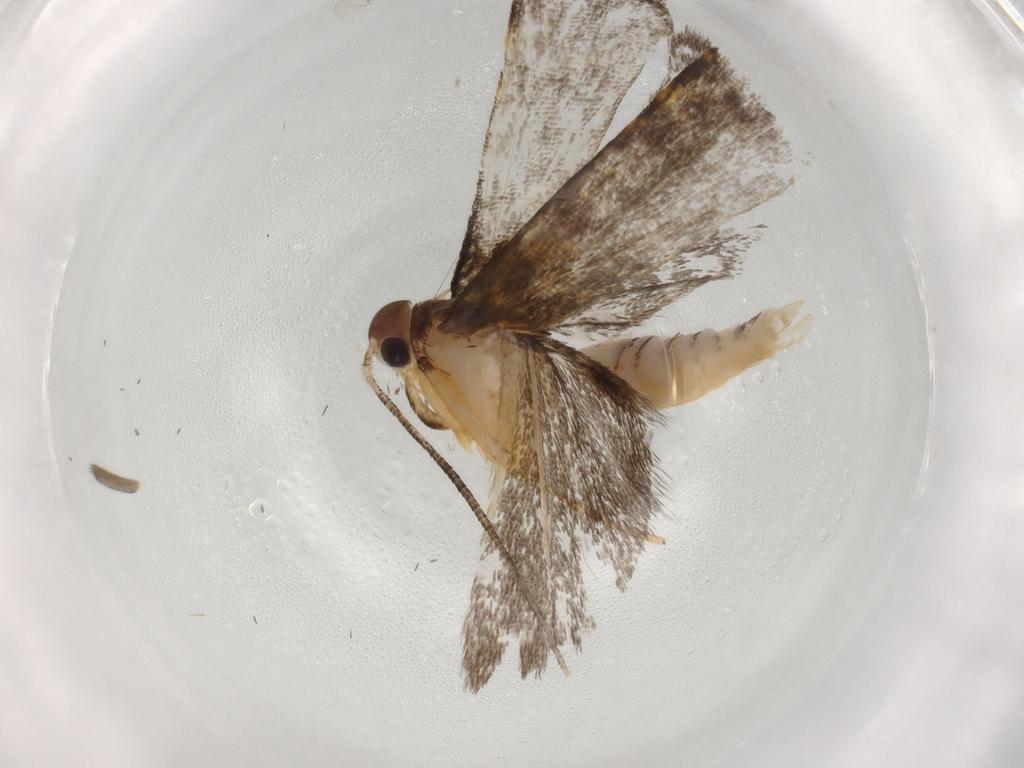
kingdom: Animalia
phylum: Arthropoda
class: Insecta
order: Lepidoptera
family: Cosmopterigidae
